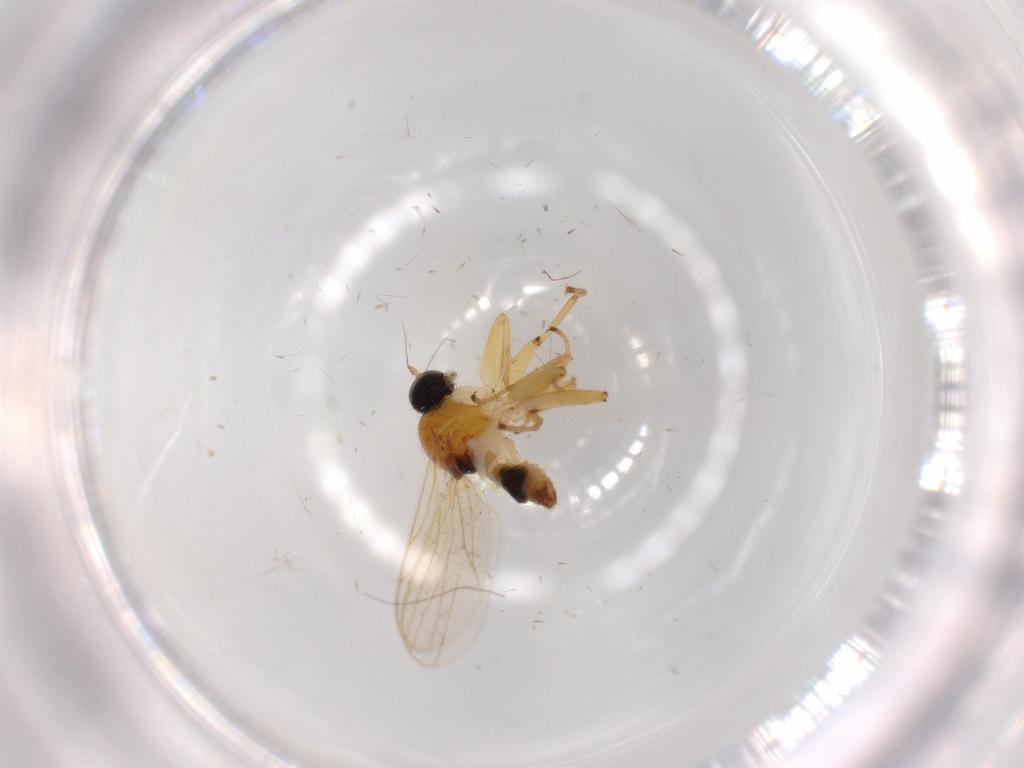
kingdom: Animalia
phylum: Arthropoda
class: Insecta
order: Diptera
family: Hybotidae
